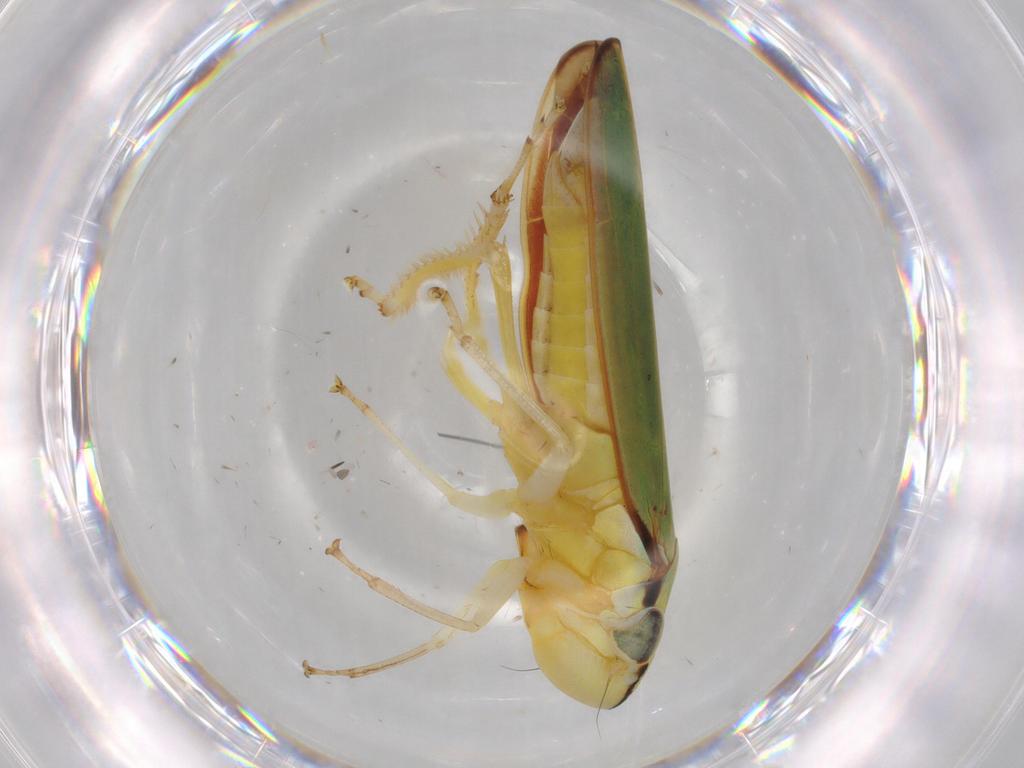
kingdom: Animalia
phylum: Arthropoda
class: Insecta
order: Hemiptera
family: Cicadellidae
